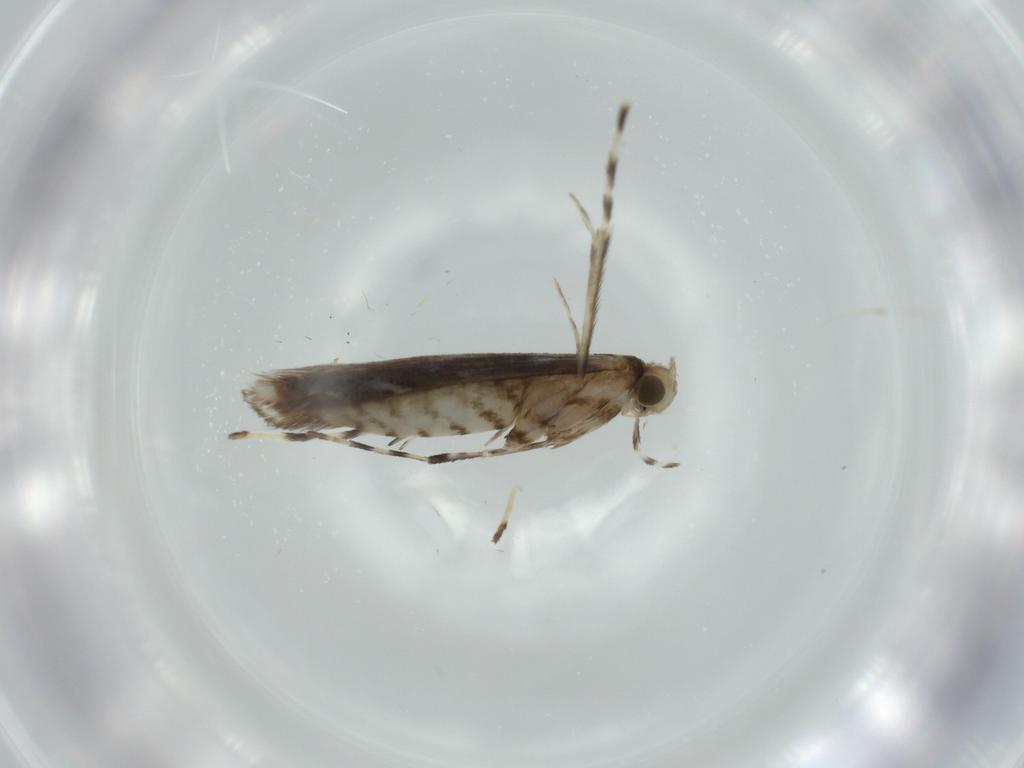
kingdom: Animalia
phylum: Arthropoda
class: Insecta
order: Lepidoptera
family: Gracillariidae
